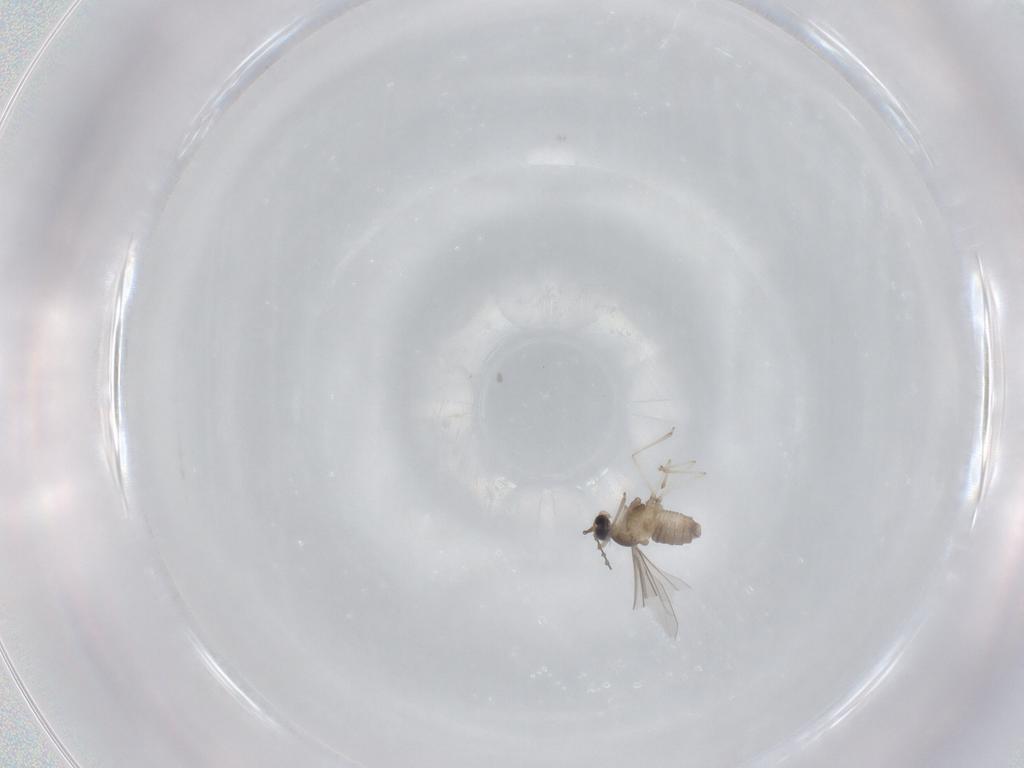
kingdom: Animalia
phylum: Arthropoda
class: Insecta
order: Diptera
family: Cecidomyiidae
